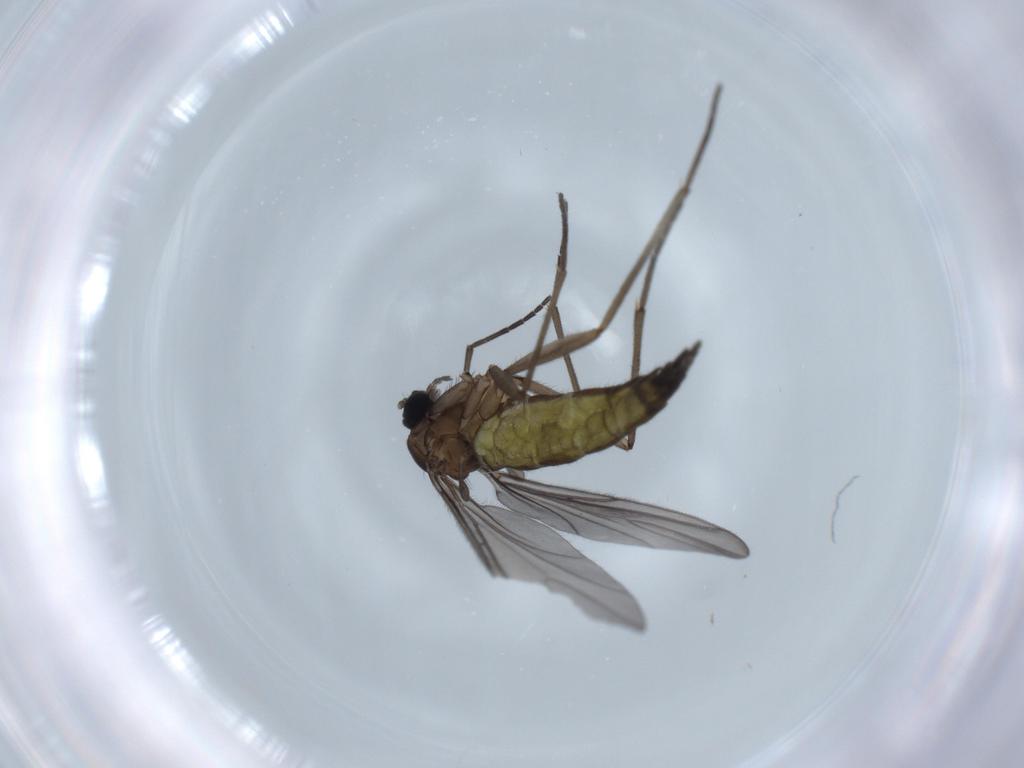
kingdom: Animalia
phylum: Arthropoda
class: Insecta
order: Diptera
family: Sciaridae
